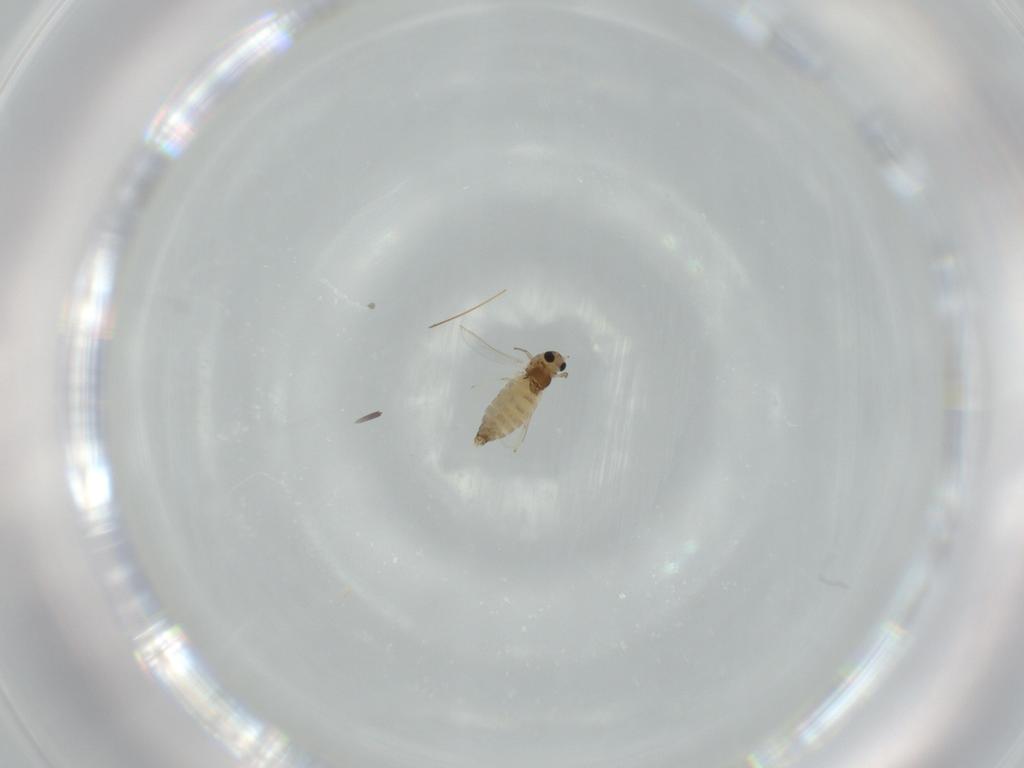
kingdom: Animalia
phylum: Arthropoda
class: Insecta
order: Diptera
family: Chironomidae
